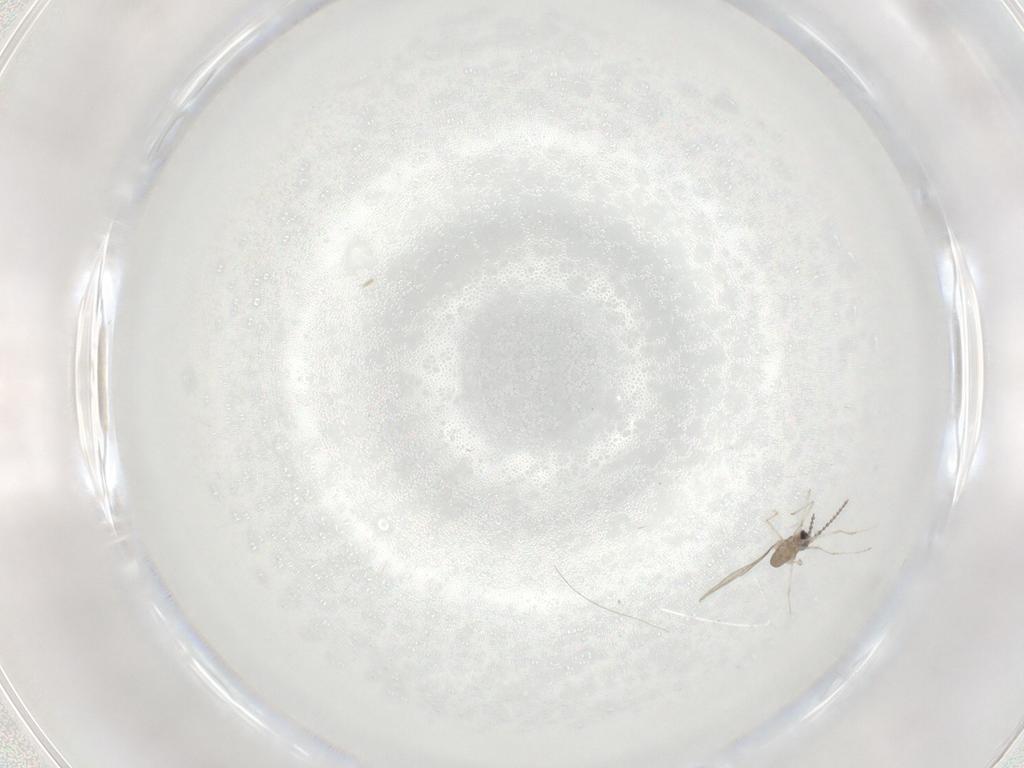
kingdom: Animalia
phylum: Arthropoda
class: Insecta
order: Diptera
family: Cecidomyiidae
